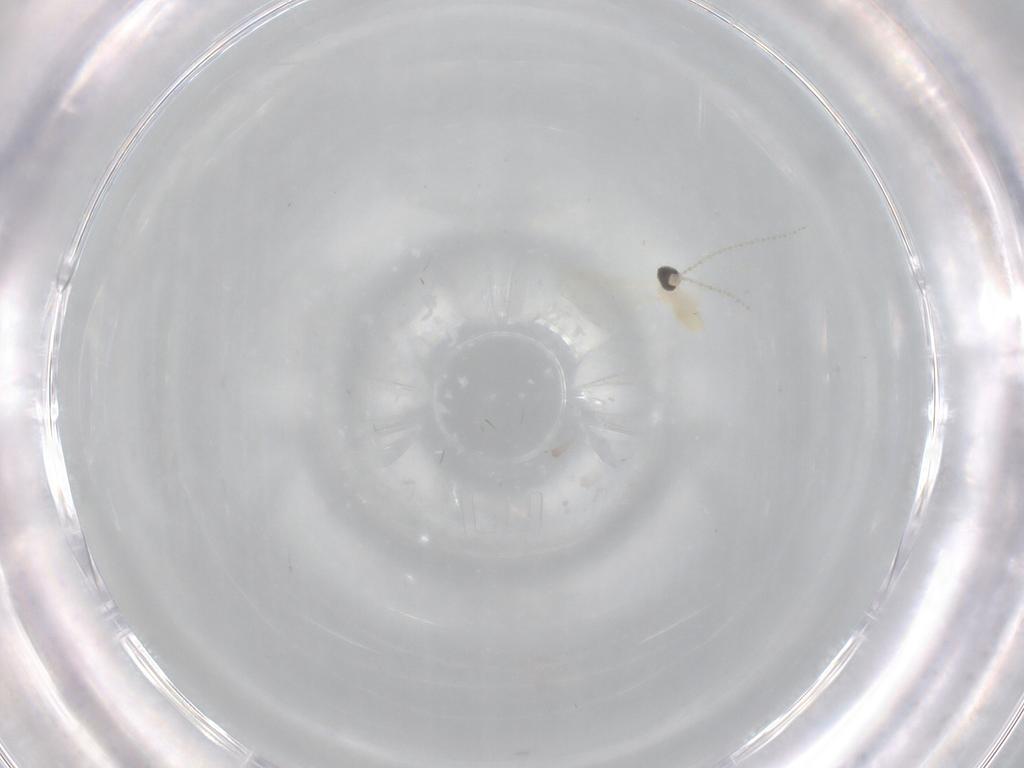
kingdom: Animalia
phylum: Arthropoda
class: Insecta
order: Diptera
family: Cecidomyiidae
